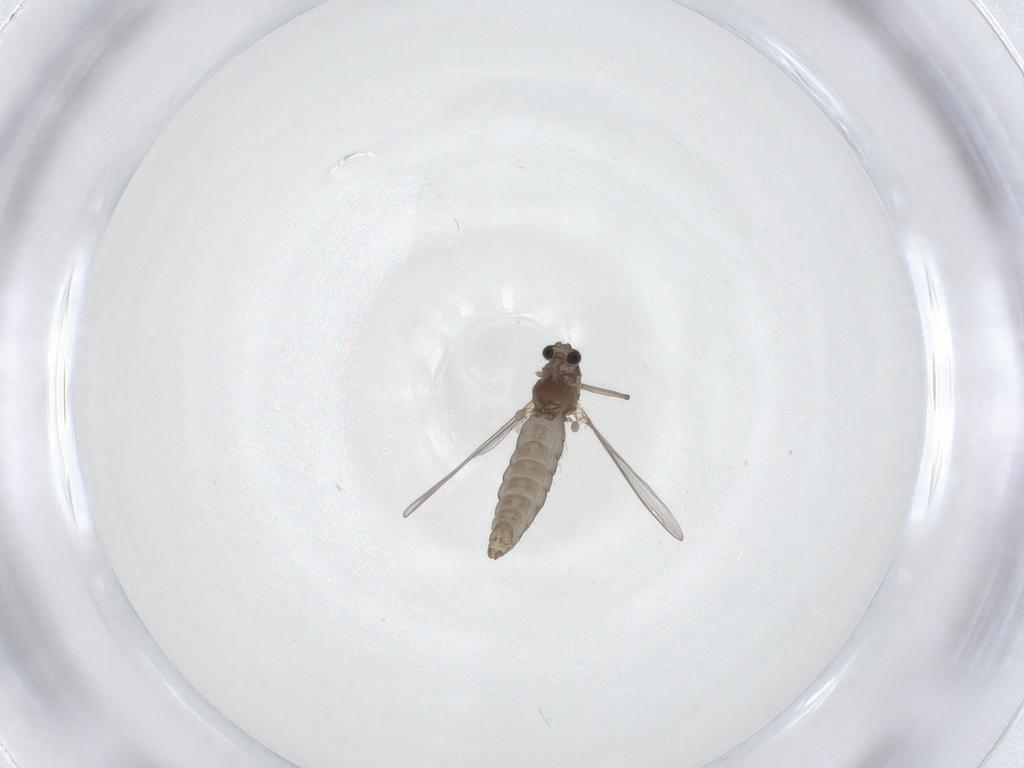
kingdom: Animalia
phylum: Arthropoda
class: Insecta
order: Diptera
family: Chironomidae
